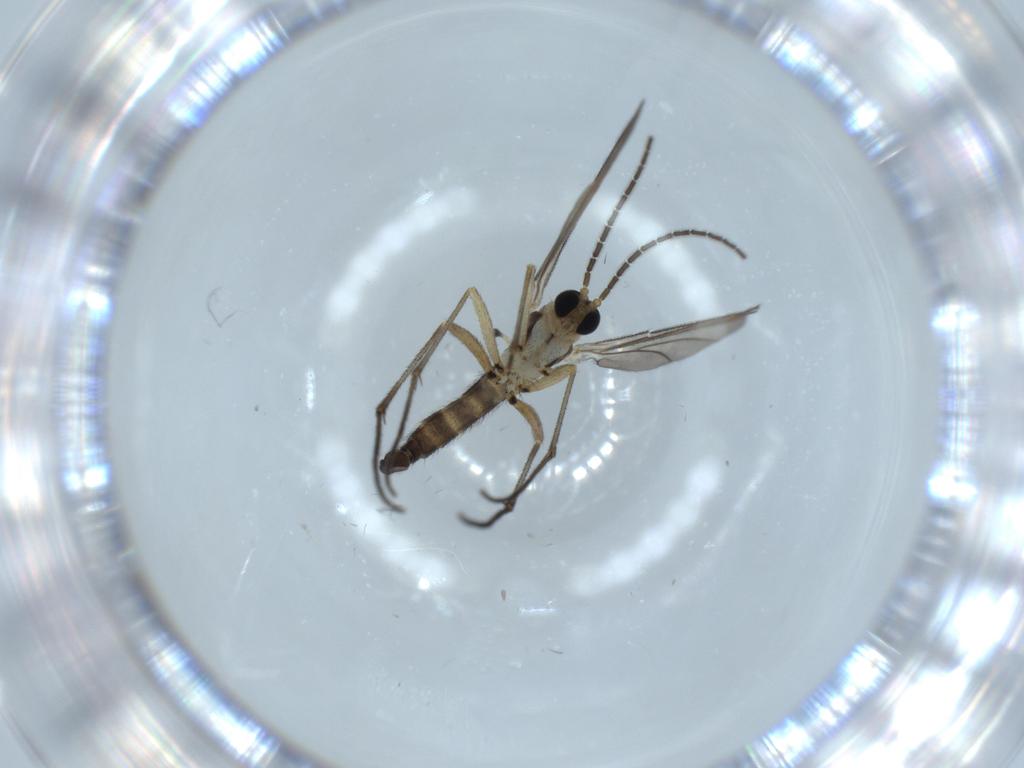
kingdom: Animalia
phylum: Arthropoda
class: Insecta
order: Diptera
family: Sciaridae
